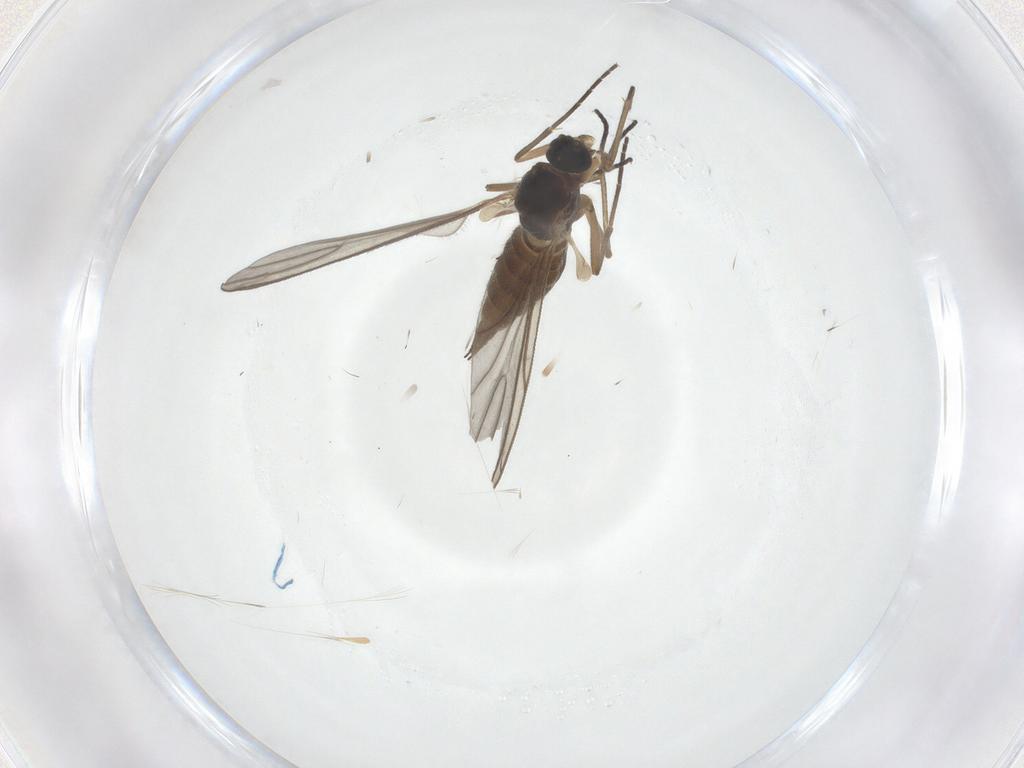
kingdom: Animalia
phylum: Arthropoda
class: Insecta
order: Diptera
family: Sciaridae
